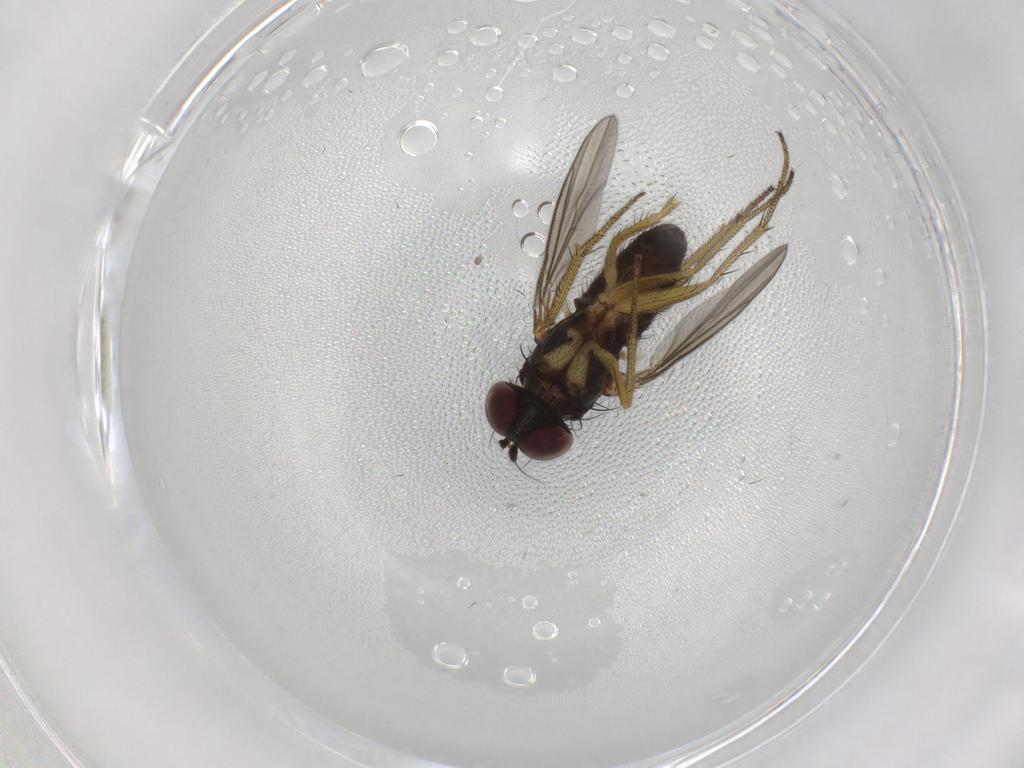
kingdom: Animalia
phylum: Arthropoda
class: Insecta
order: Diptera
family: Dolichopodidae
